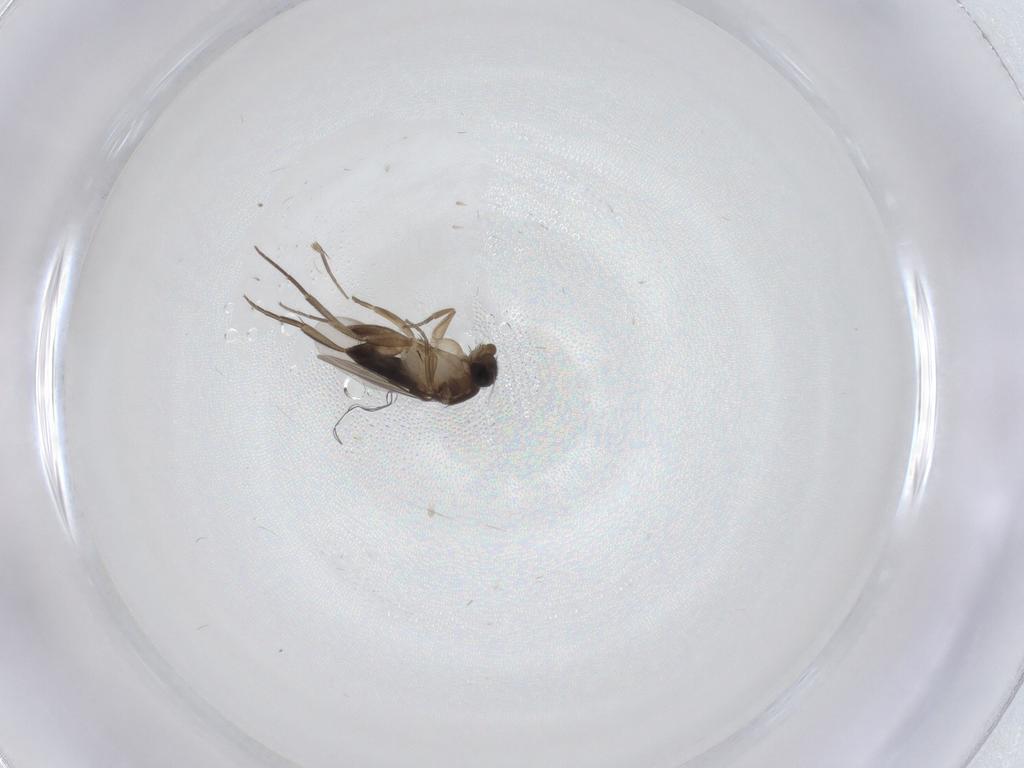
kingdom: Animalia
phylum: Arthropoda
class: Insecta
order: Diptera
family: Phoridae
